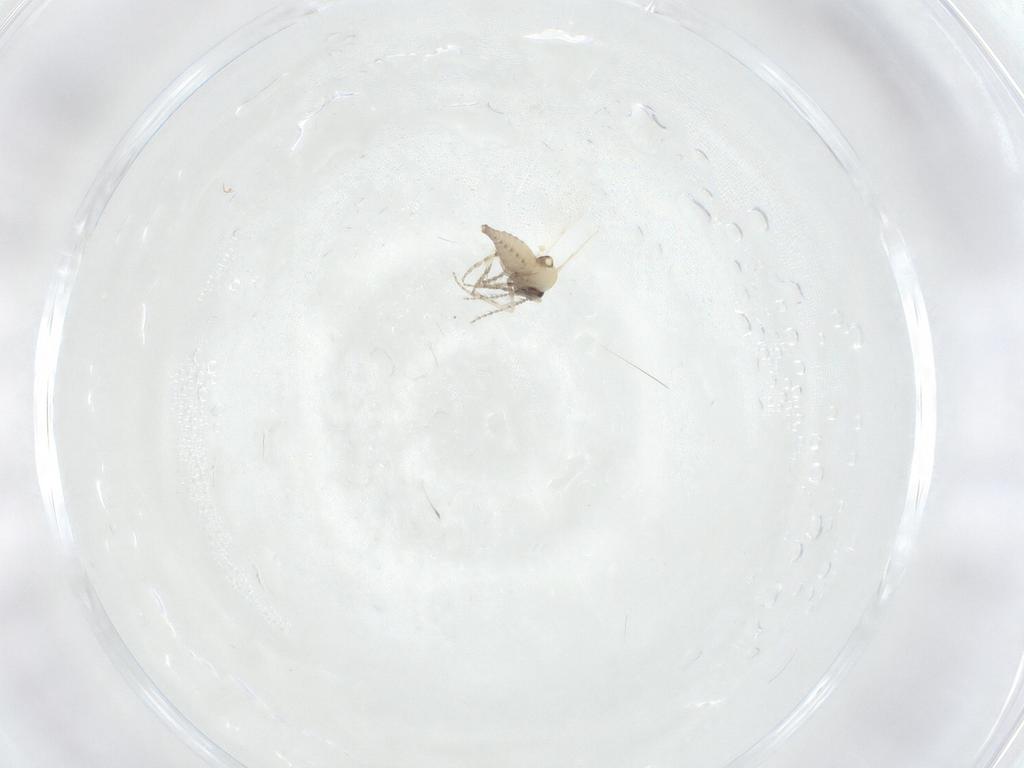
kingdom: Animalia
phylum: Arthropoda
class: Insecta
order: Diptera
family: Ceratopogonidae
